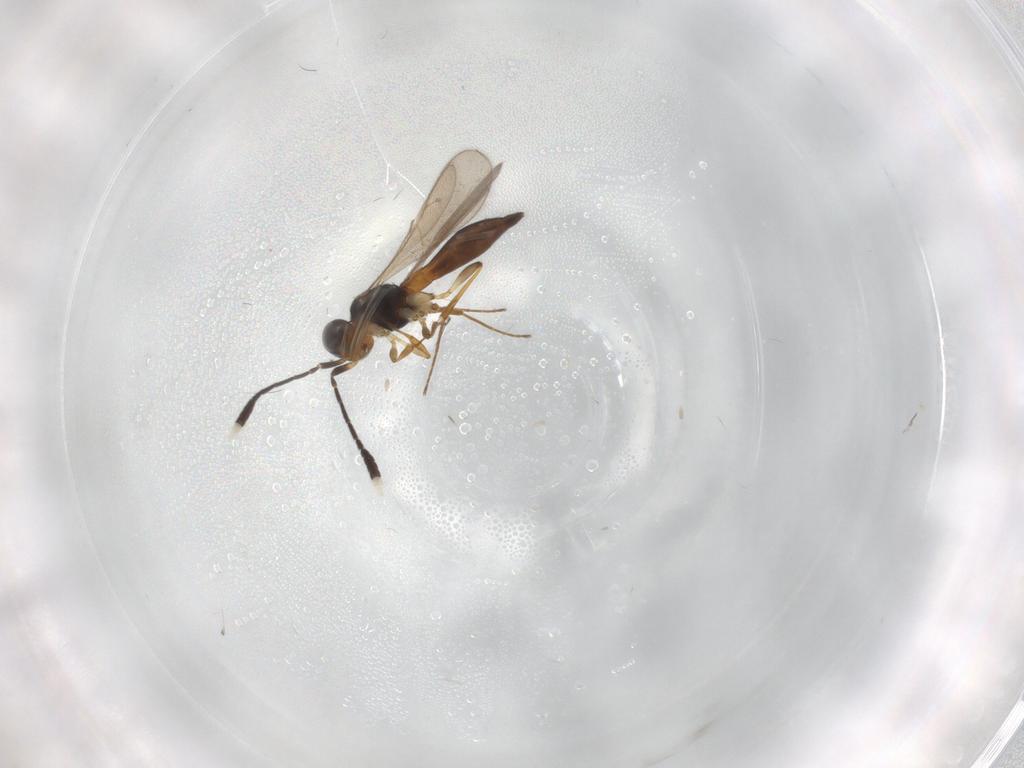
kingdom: Animalia
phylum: Arthropoda
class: Insecta
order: Hymenoptera
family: Scelionidae
